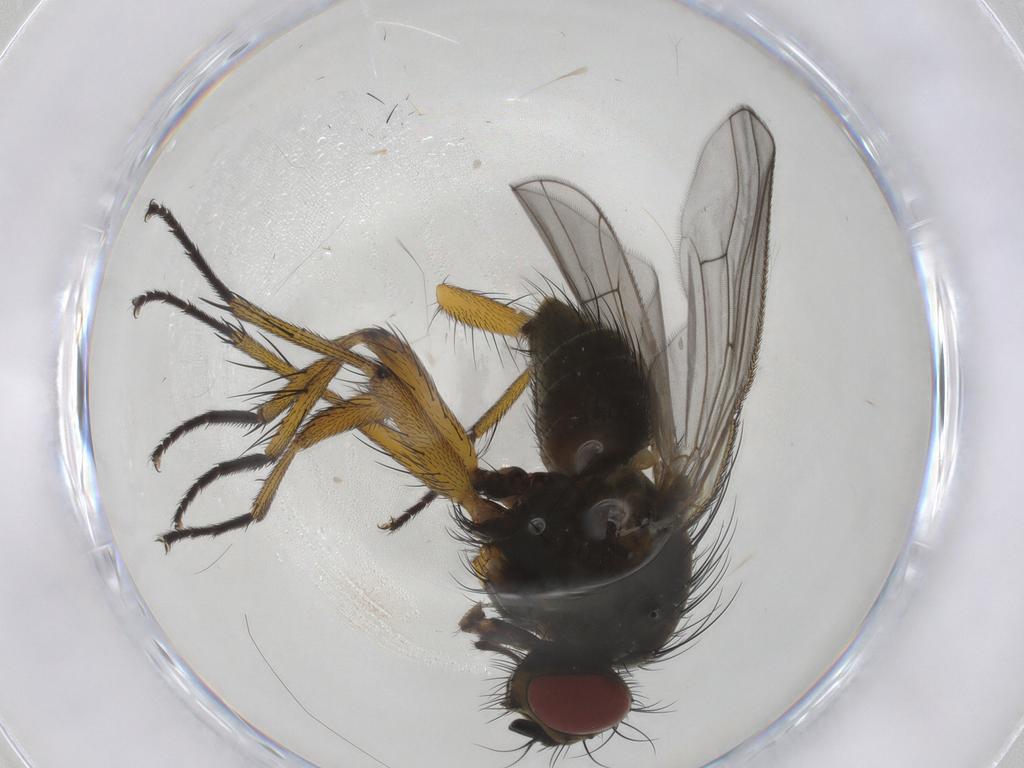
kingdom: Animalia
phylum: Arthropoda
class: Insecta
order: Diptera
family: Muscidae
